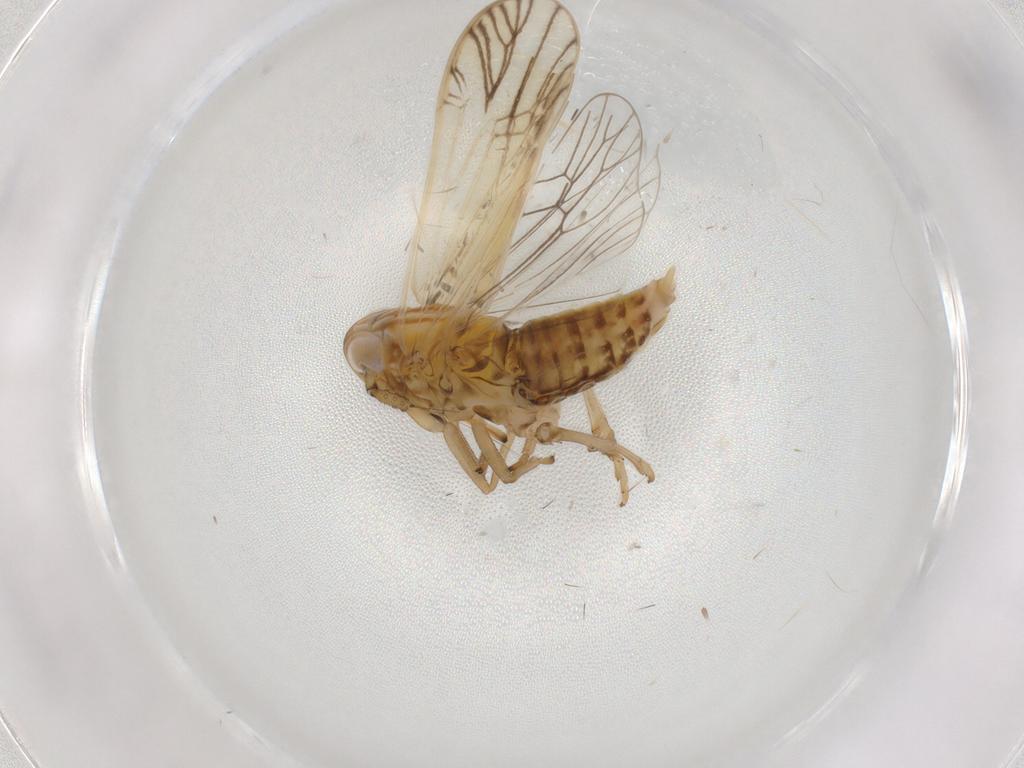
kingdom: Animalia
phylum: Arthropoda
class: Insecta
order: Hemiptera
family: Delphacidae
